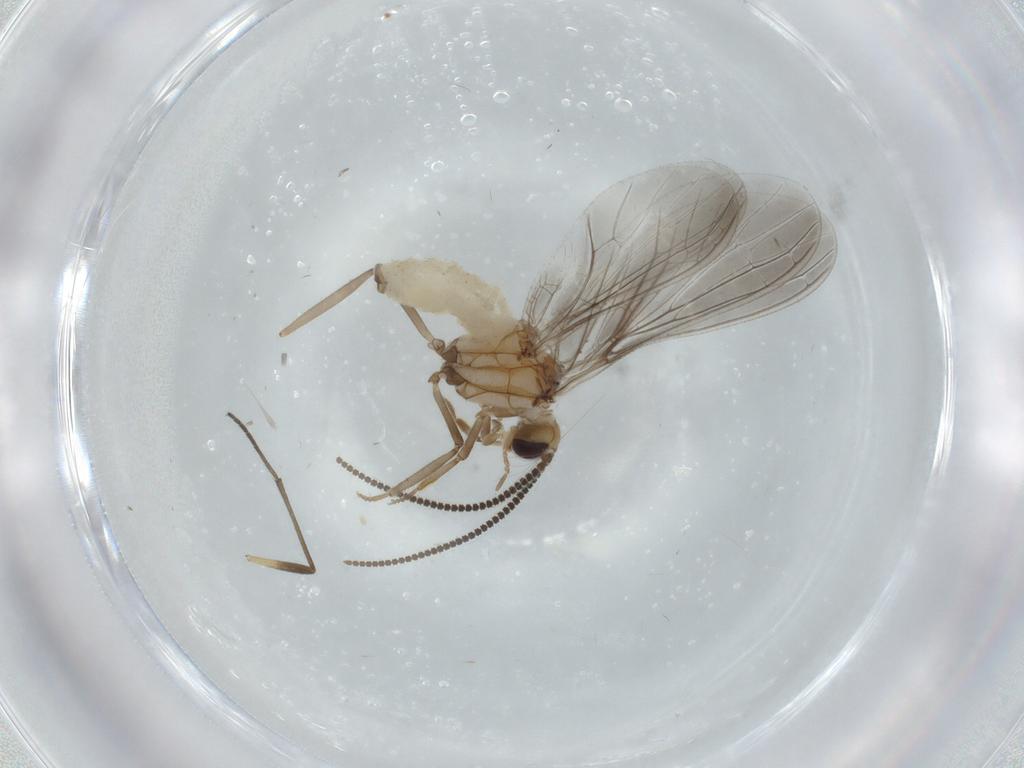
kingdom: Animalia
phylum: Arthropoda
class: Insecta
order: Neuroptera
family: Coniopterygidae
